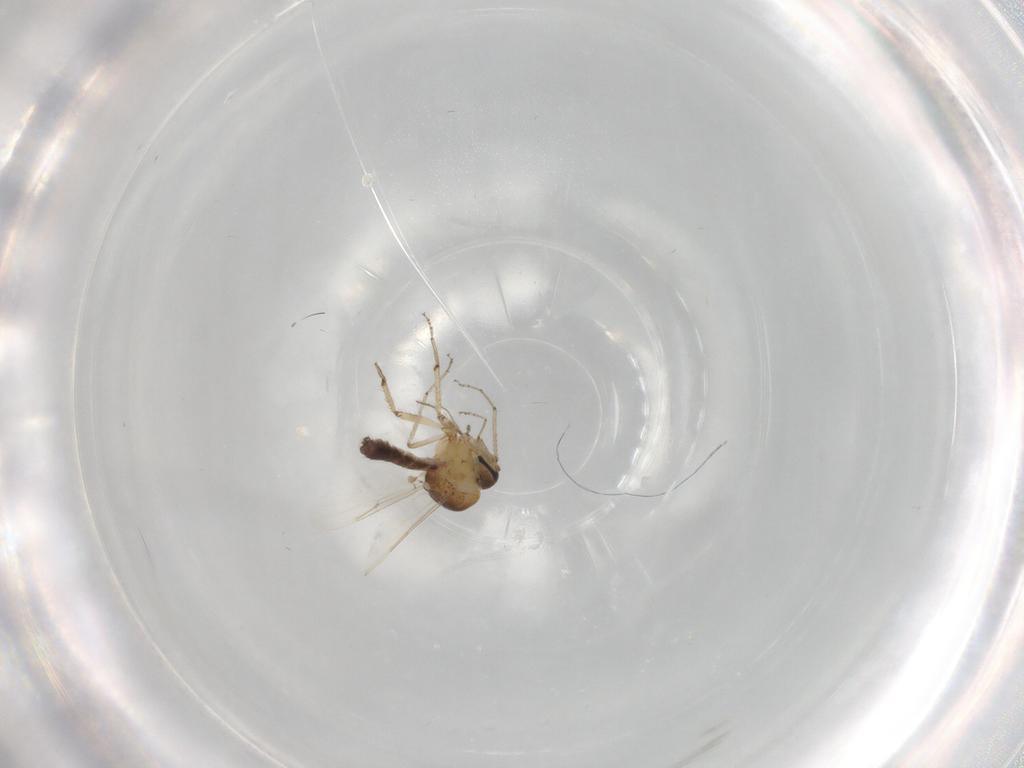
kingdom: Animalia
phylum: Arthropoda
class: Insecta
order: Diptera
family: Ceratopogonidae
